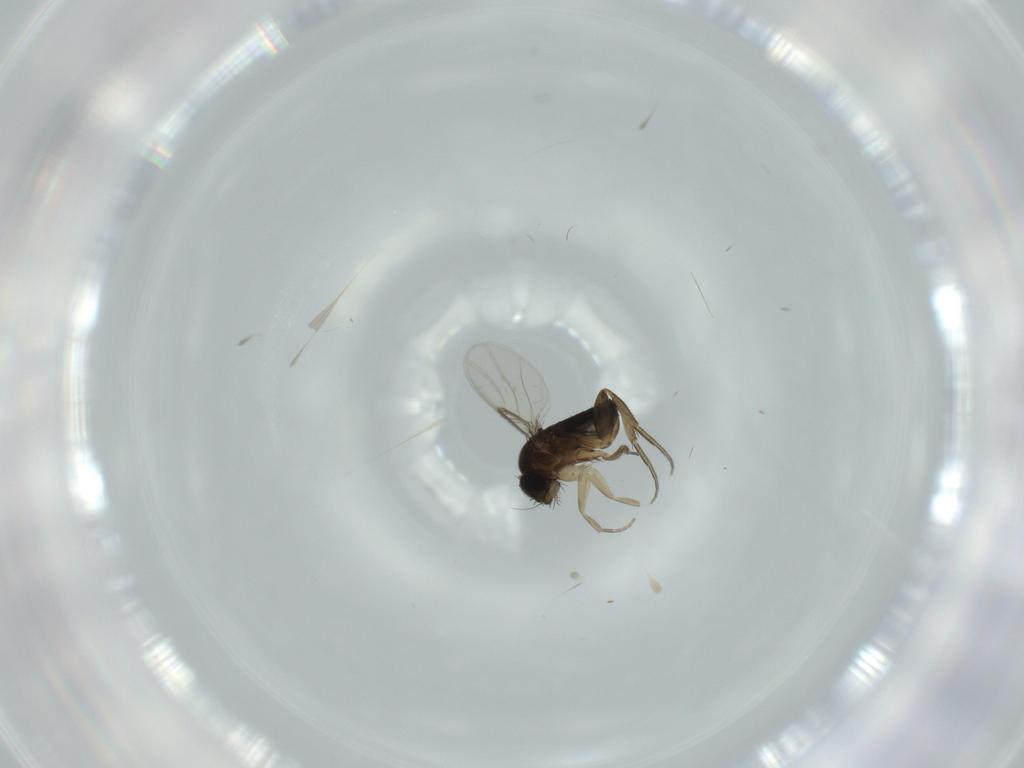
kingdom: Animalia
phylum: Arthropoda
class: Insecta
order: Diptera
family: Phoridae
